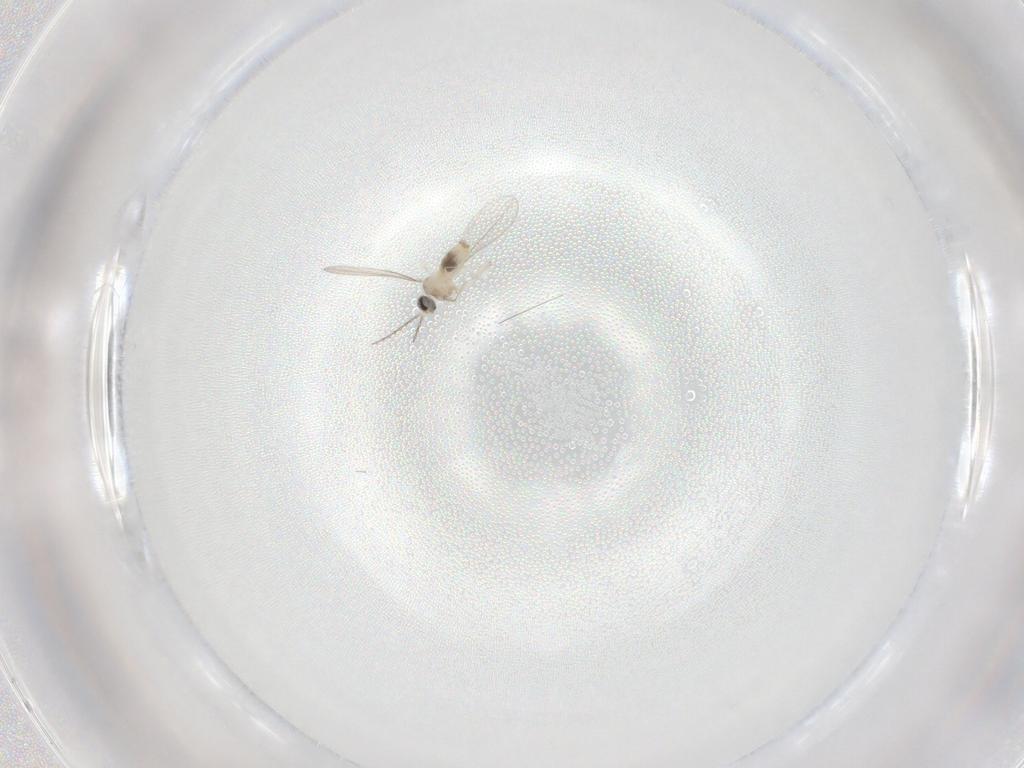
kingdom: Animalia
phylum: Arthropoda
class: Insecta
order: Diptera
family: Cecidomyiidae
